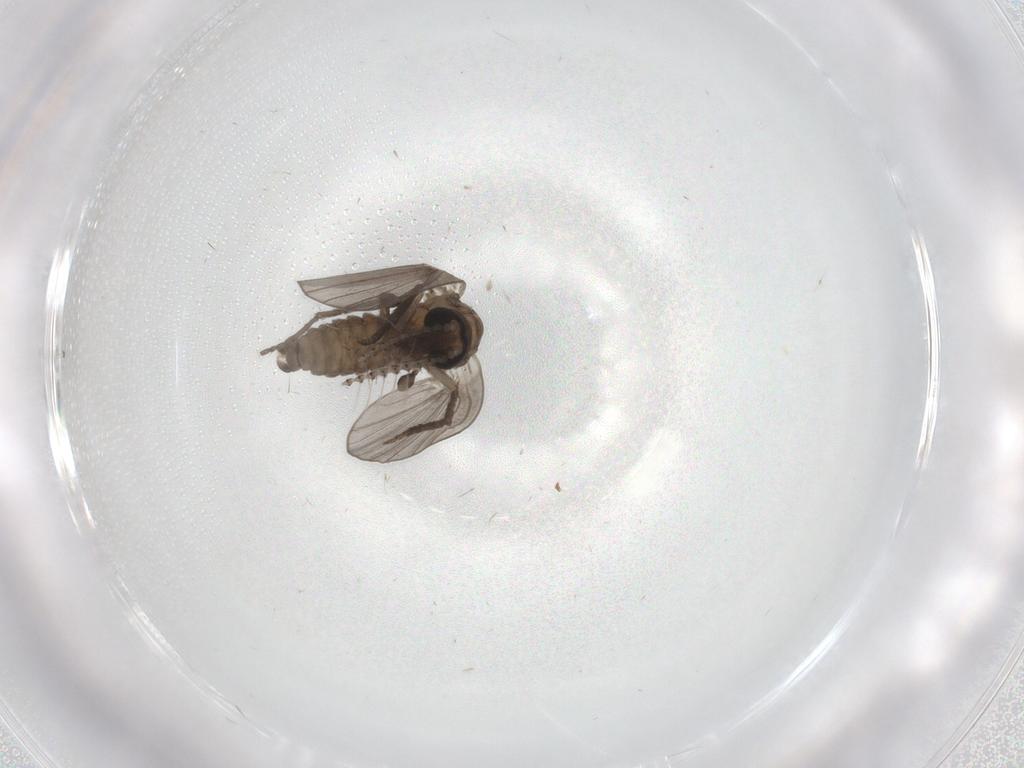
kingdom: Animalia
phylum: Arthropoda
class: Insecta
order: Diptera
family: Psychodidae
